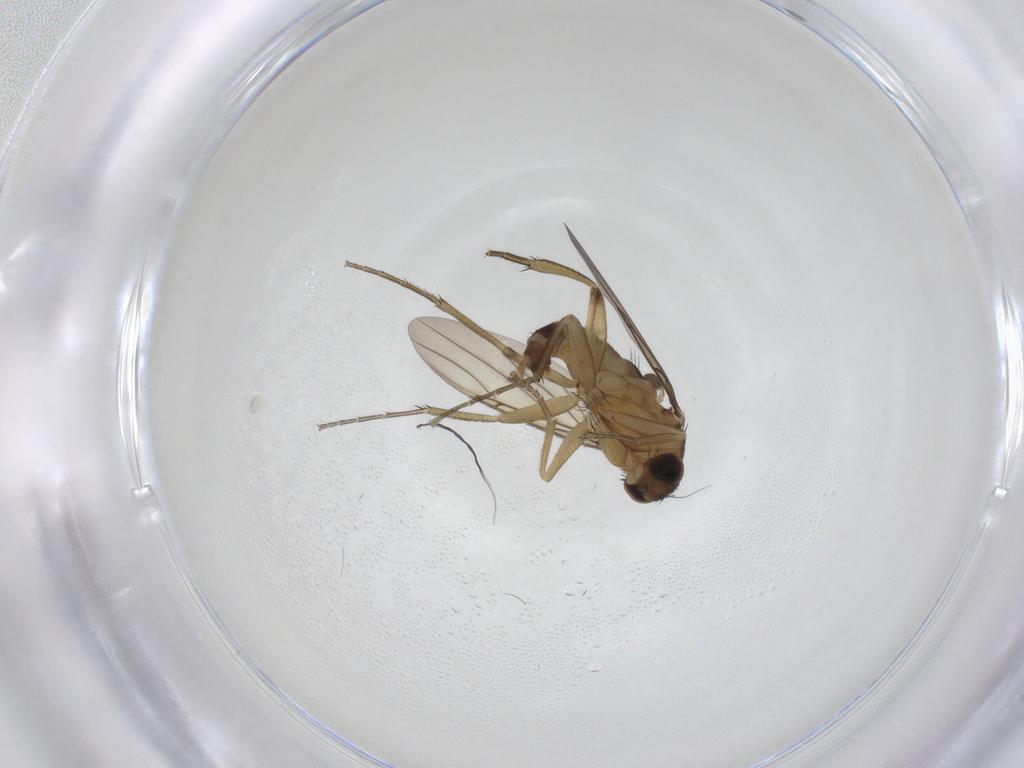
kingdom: Animalia
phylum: Arthropoda
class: Insecta
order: Diptera
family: Phoridae
